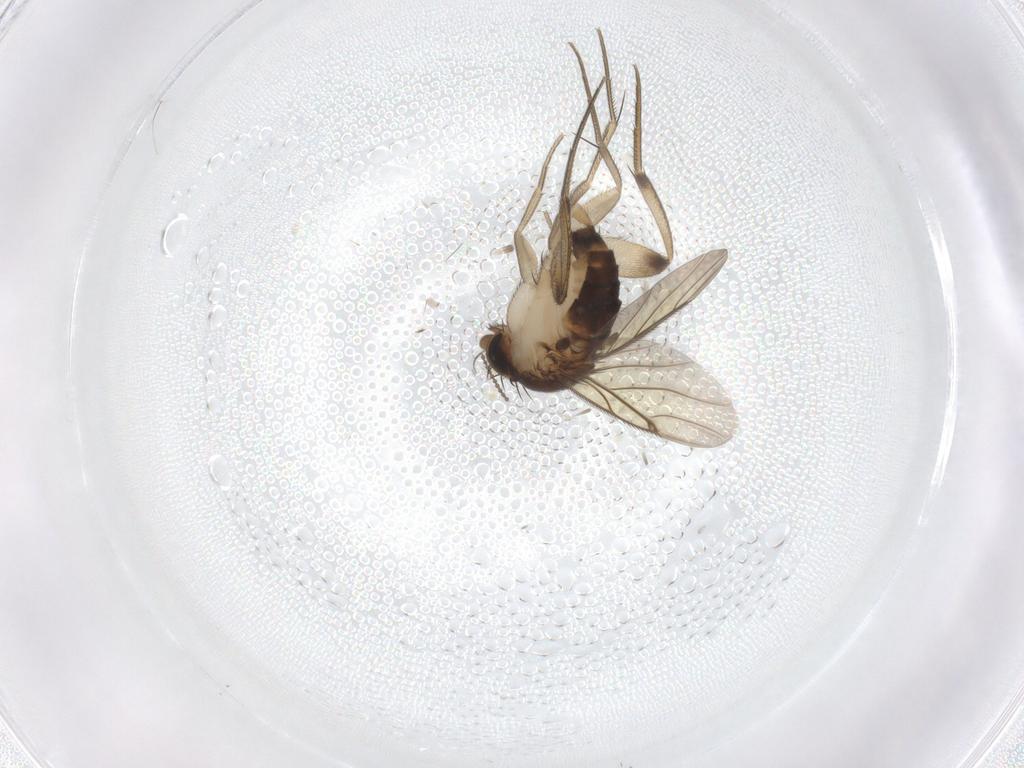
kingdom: Animalia
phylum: Arthropoda
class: Insecta
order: Diptera
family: Phoridae
